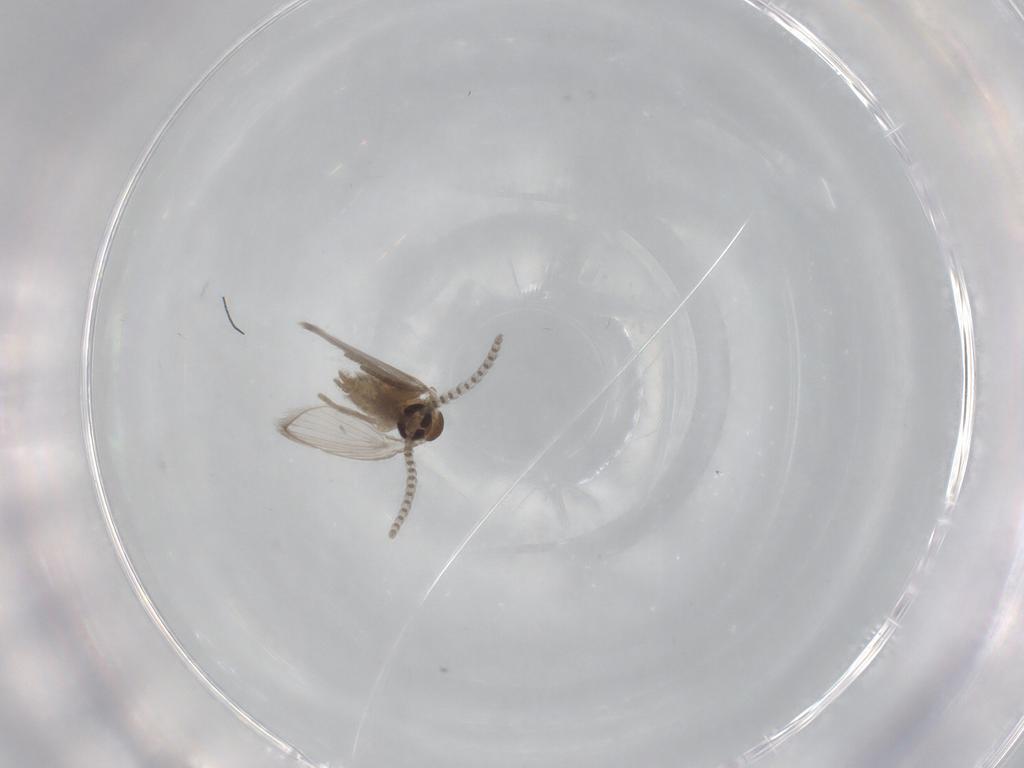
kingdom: Animalia
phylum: Arthropoda
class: Insecta
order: Diptera
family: Psychodidae
